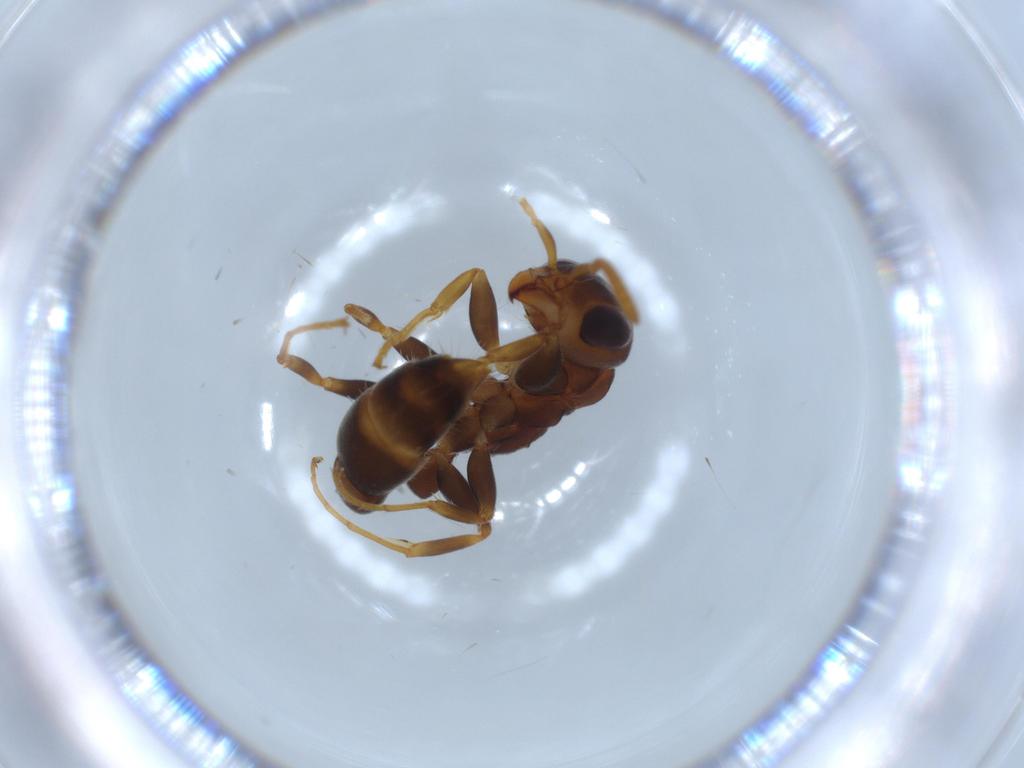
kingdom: Animalia
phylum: Arthropoda
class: Insecta
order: Hymenoptera
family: Formicidae
